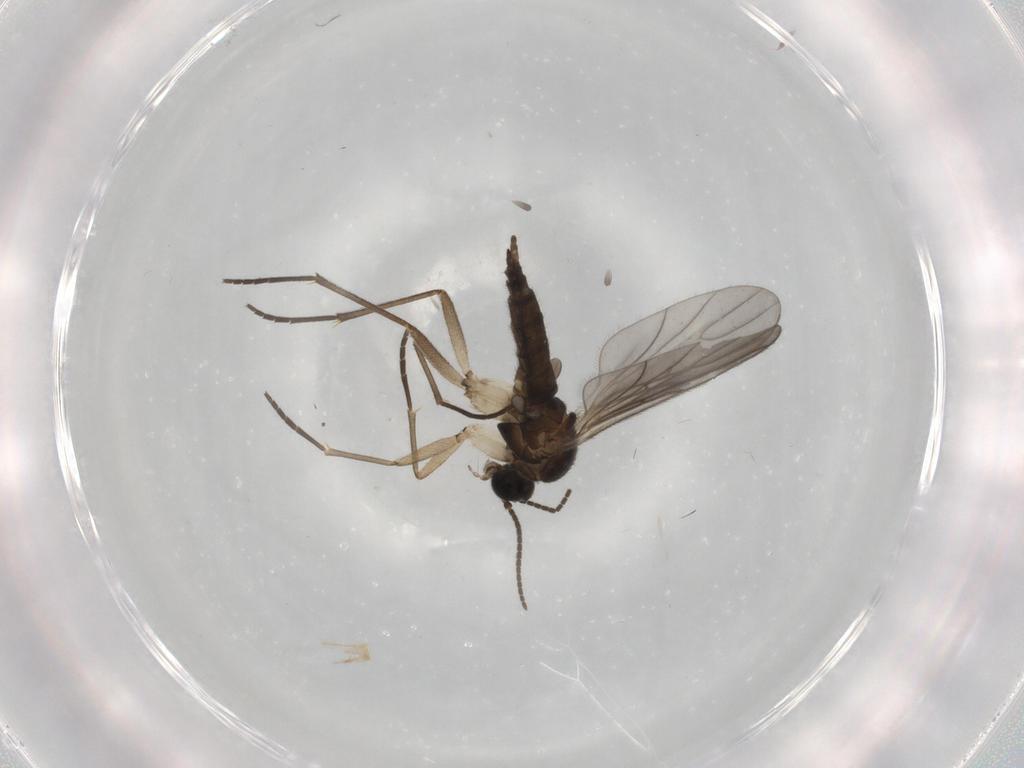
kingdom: Animalia
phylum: Arthropoda
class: Insecta
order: Diptera
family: Sciaridae
